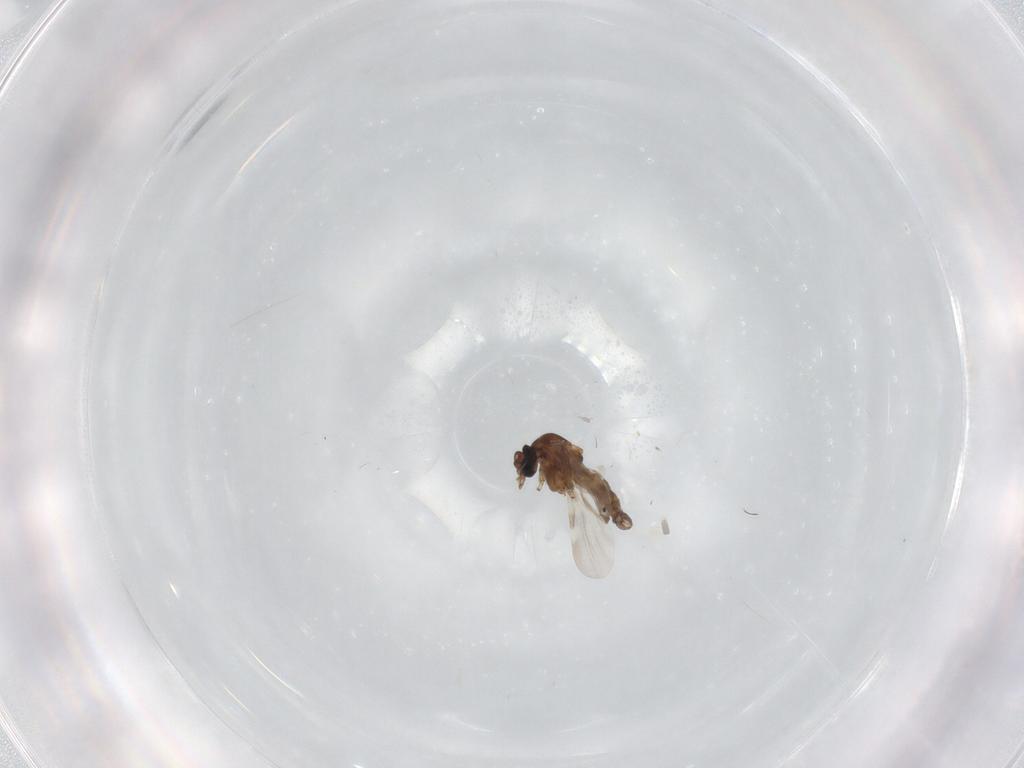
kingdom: Animalia
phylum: Arthropoda
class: Insecta
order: Diptera
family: Ceratopogonidae
